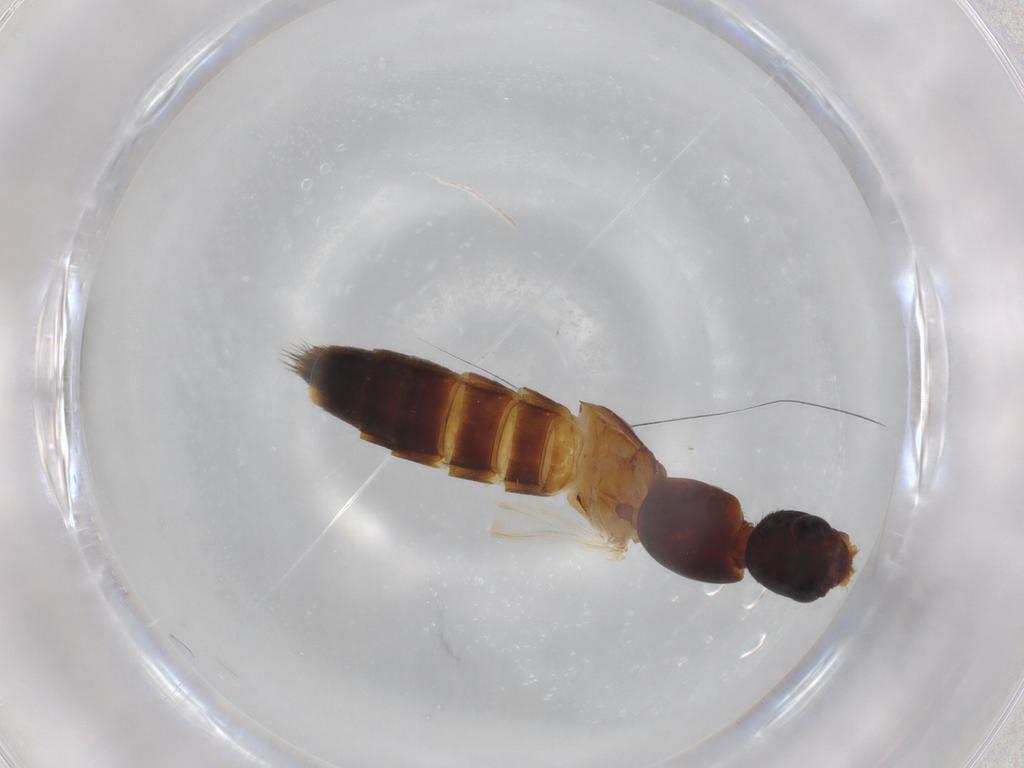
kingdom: Animalia
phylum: Arthropoda
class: Insecta
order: Coleoptera
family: Staphylinidae
